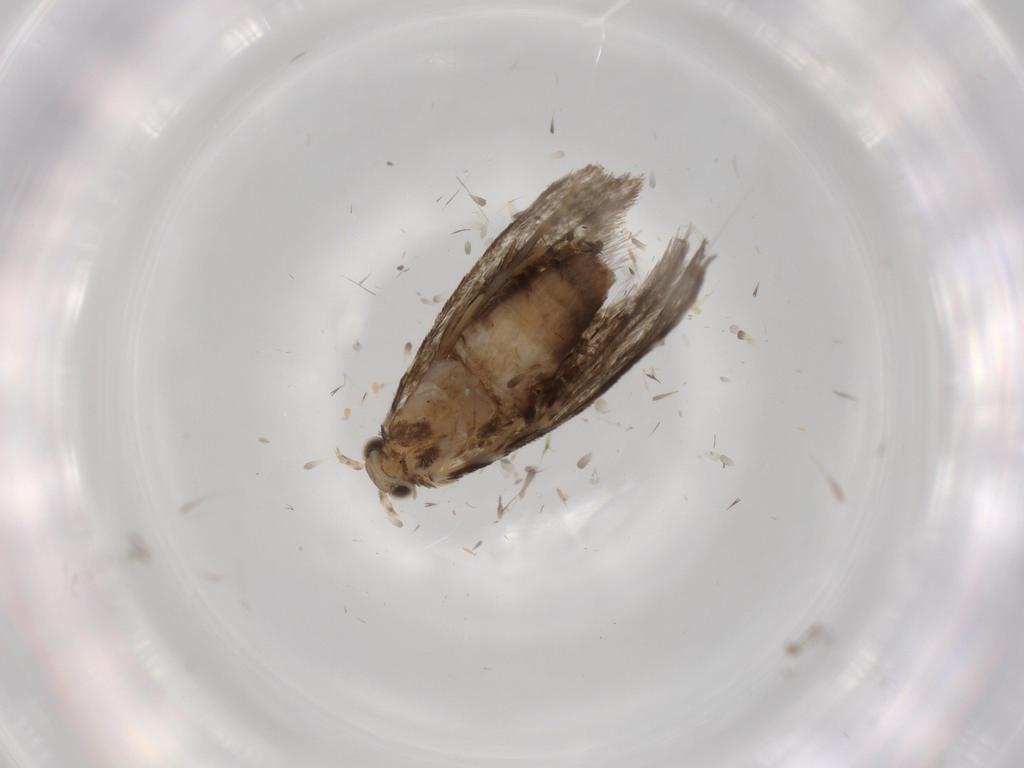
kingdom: Animalia
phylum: Arthropoda
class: Insecta
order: Lepidoptera
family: Tineidae
